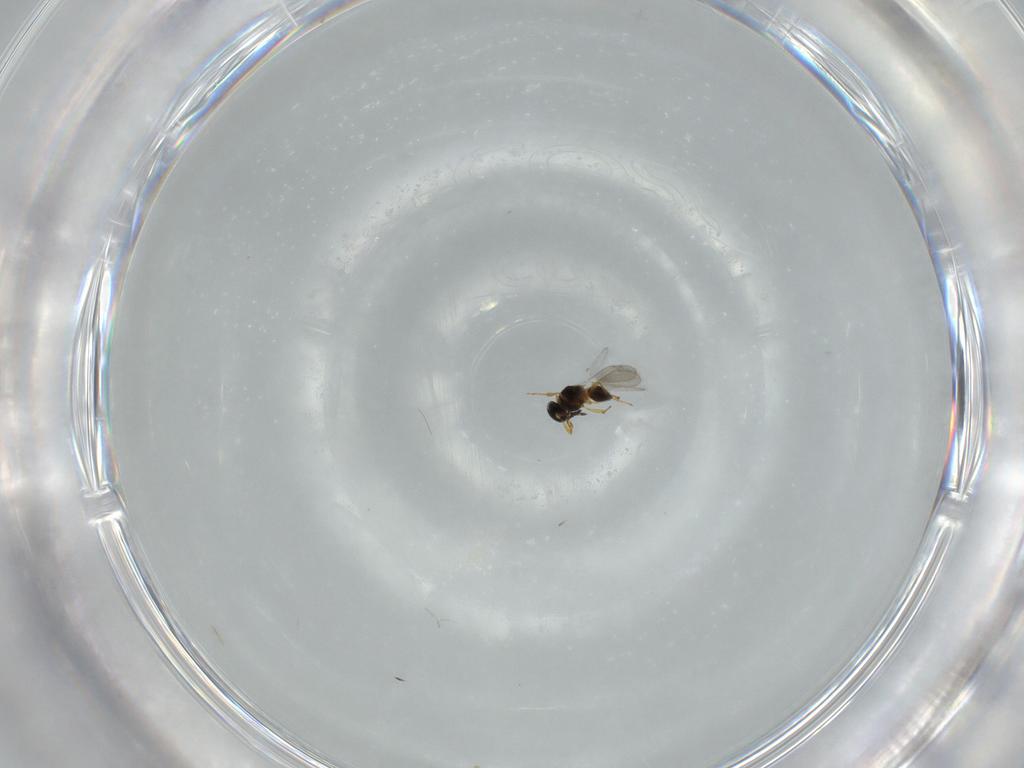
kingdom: Animalia
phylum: Arthropoda
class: Insecta
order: Hymenoptera
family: Platygastridae
